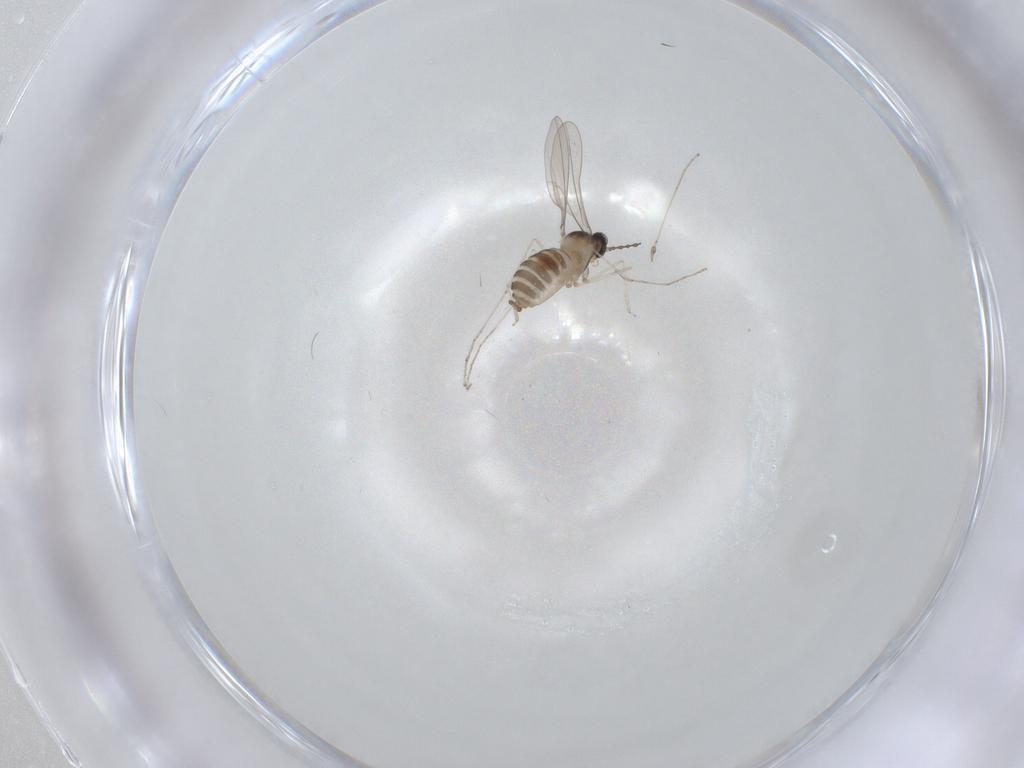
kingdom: Animalia
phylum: Arthropoda
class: Insecta
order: Diptera
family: Cecidomyiidae
